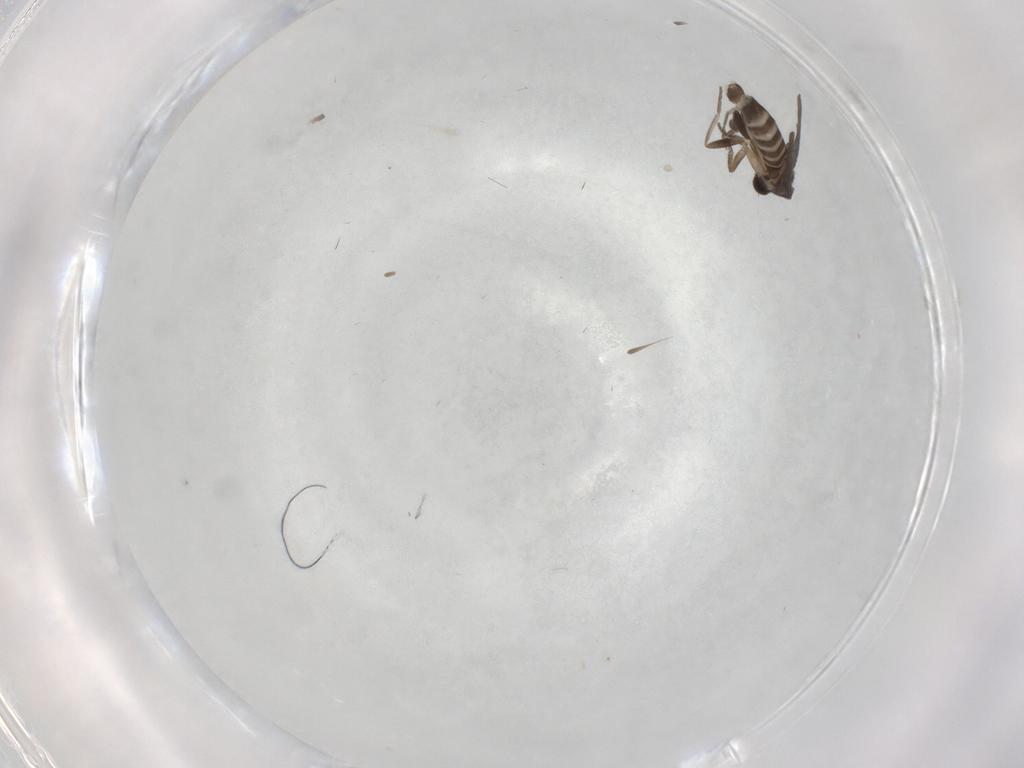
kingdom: Animalia
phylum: Arthropoda
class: Insecta
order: Diptera
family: Phoridae
